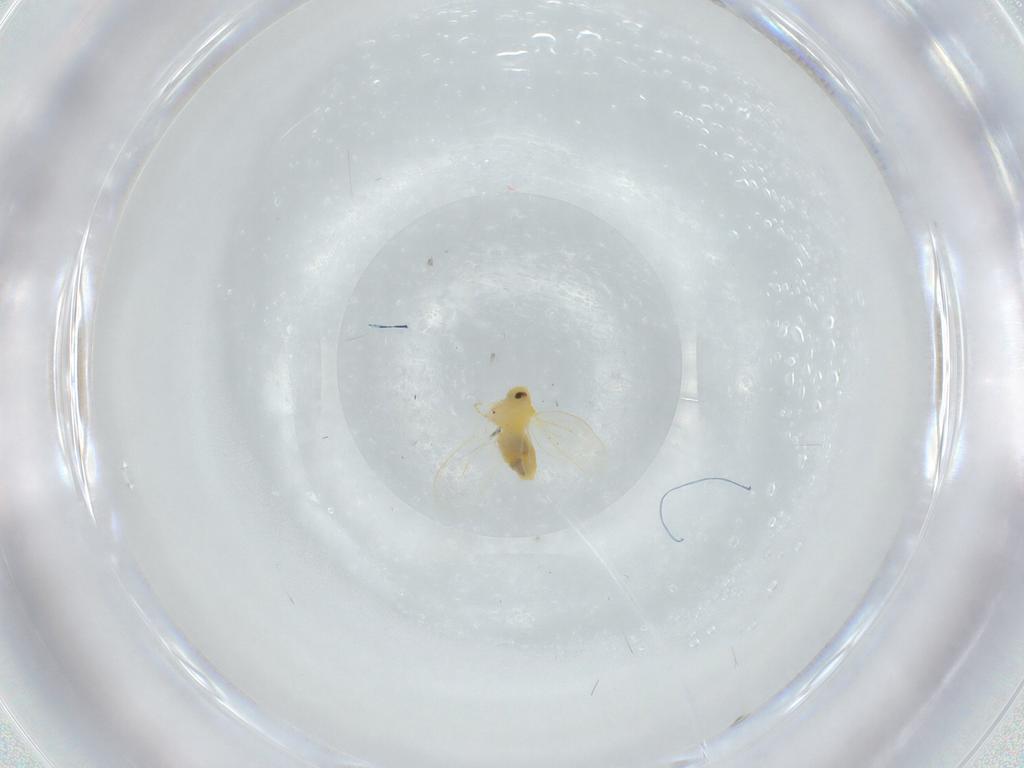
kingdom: Animalia
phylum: Arthropoda
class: Insecta
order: Hemiptera
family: Aleyrodidae
